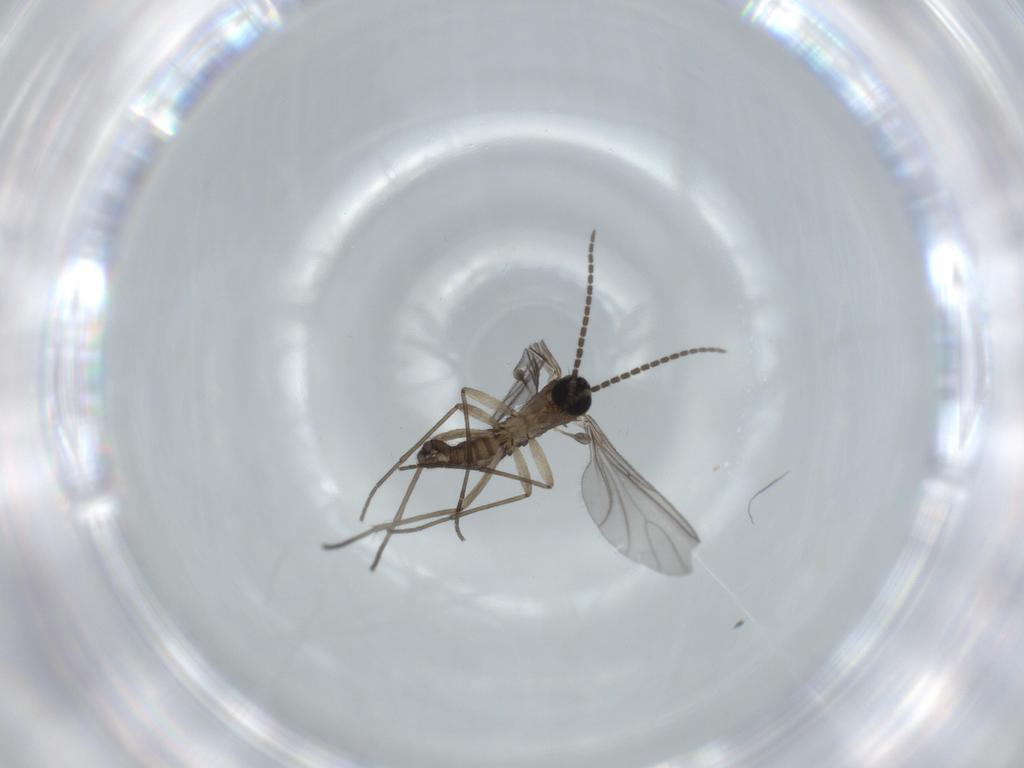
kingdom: Animalia
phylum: Arthropoda
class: Insecta
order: Diptera
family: Sciaridae
